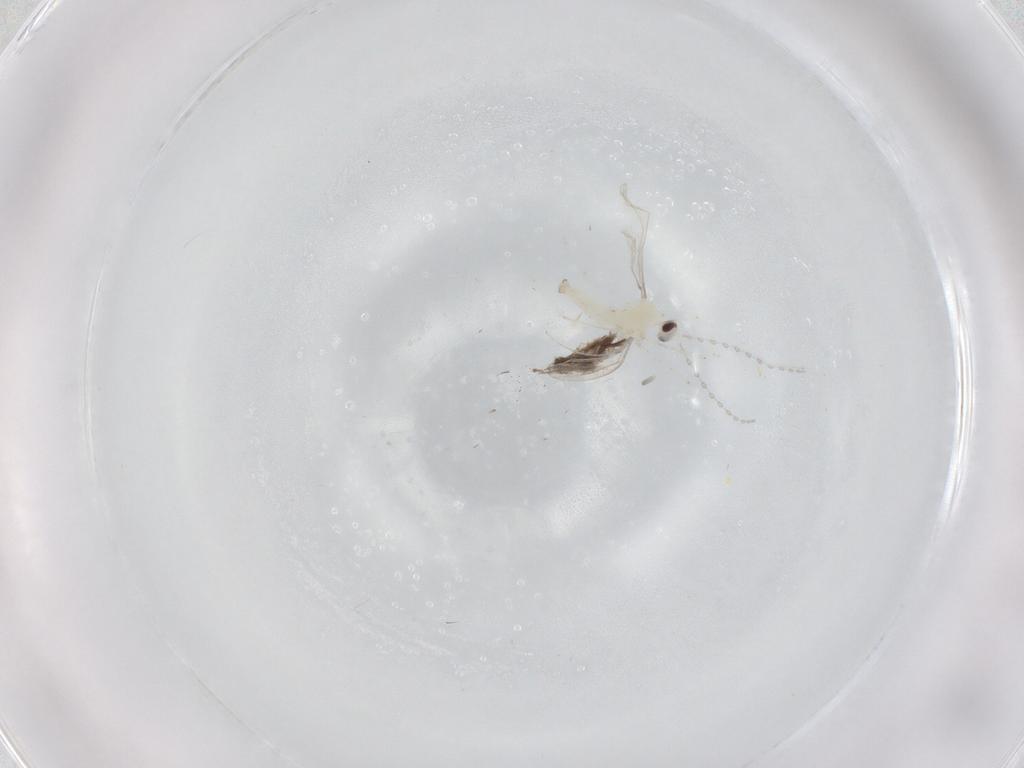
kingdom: Animalia
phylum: Arthropoda
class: Insecta
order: Diptera
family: Cecidomyiidae
